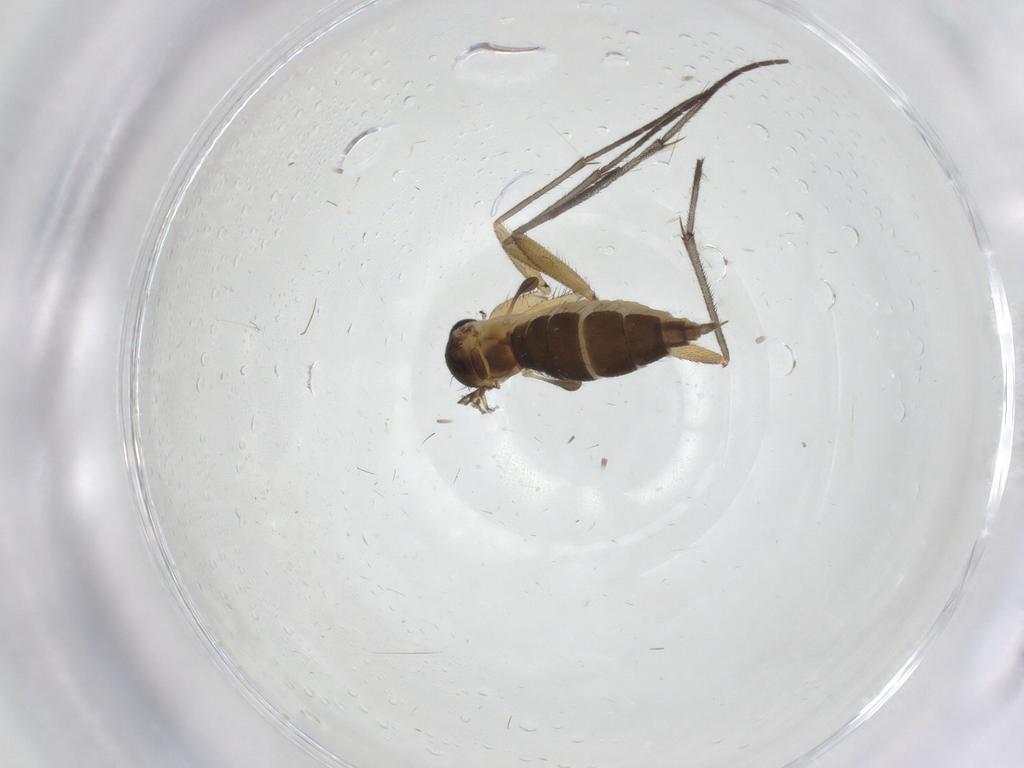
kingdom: Animalia
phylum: Arthropoda
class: Insecta
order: Diptera
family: Sciaridae
